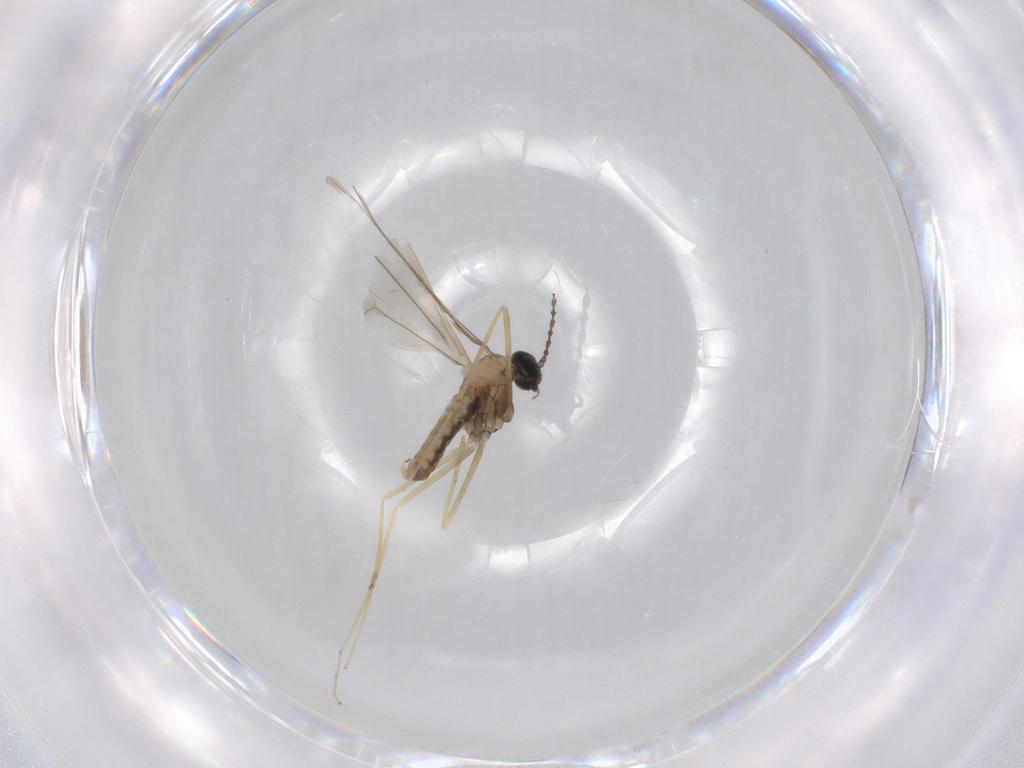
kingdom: Animalia
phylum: Arthropoda
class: Insecta
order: Diptera
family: Cecidomyiidae
